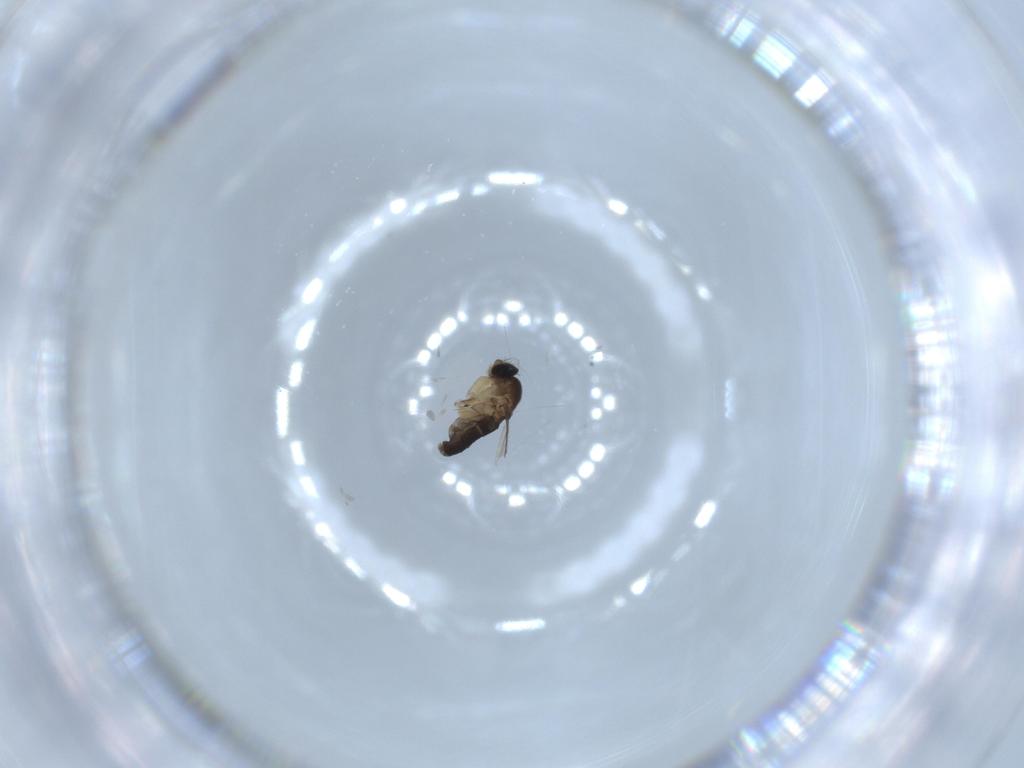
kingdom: Animalia
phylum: Arthropoda
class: Insecta
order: Diptera
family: Phoridae
